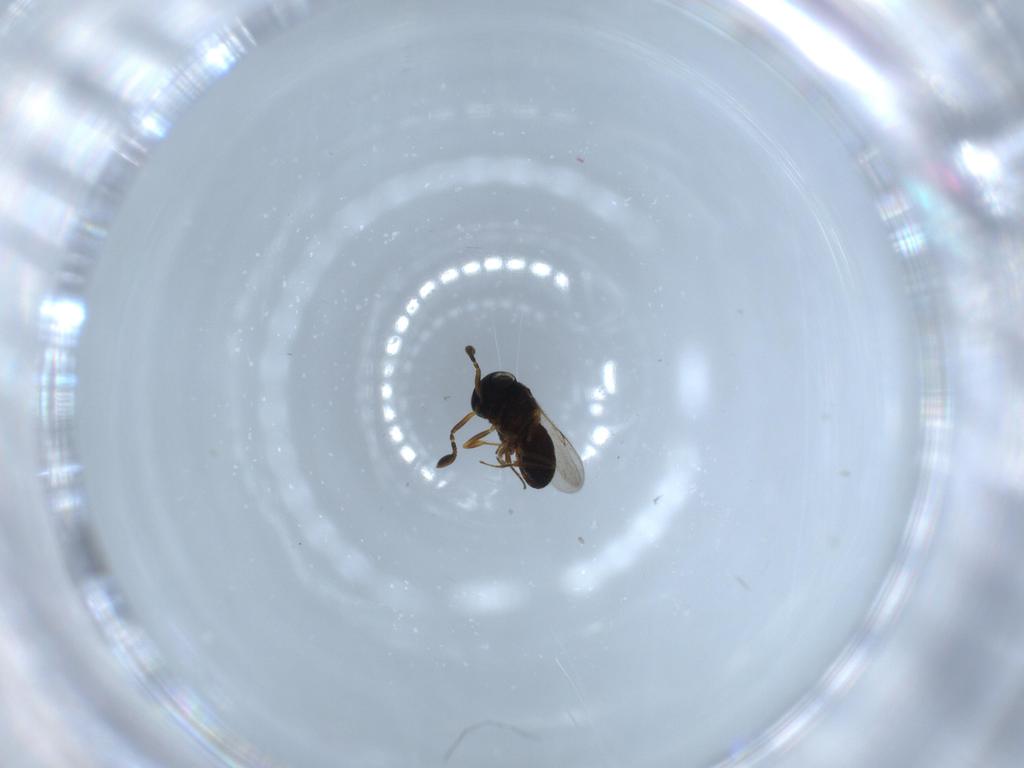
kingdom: Animalia
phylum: Arthropoda
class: Insecta
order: Hymenoptera
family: Scelionidae
